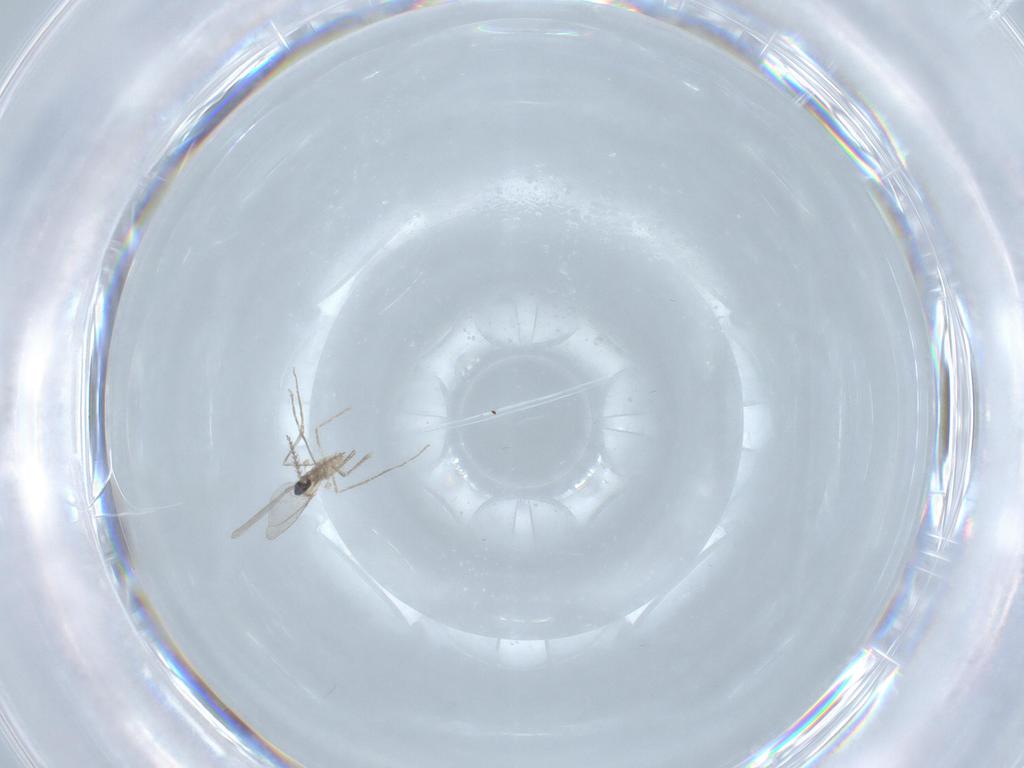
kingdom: Animalia
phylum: Arthropoda
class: Insecta
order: Diptera
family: Cecidomyiidae
